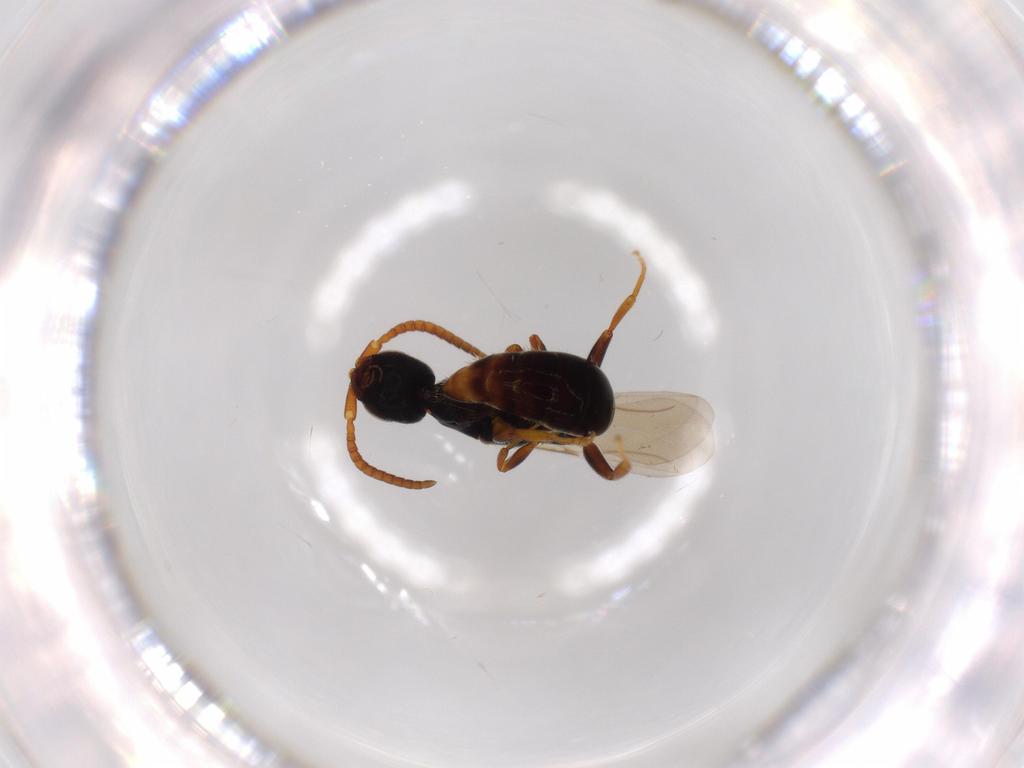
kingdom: Animalia
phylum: Arthropoda
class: Insecta
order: Hymenoptera
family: Bethylidae
